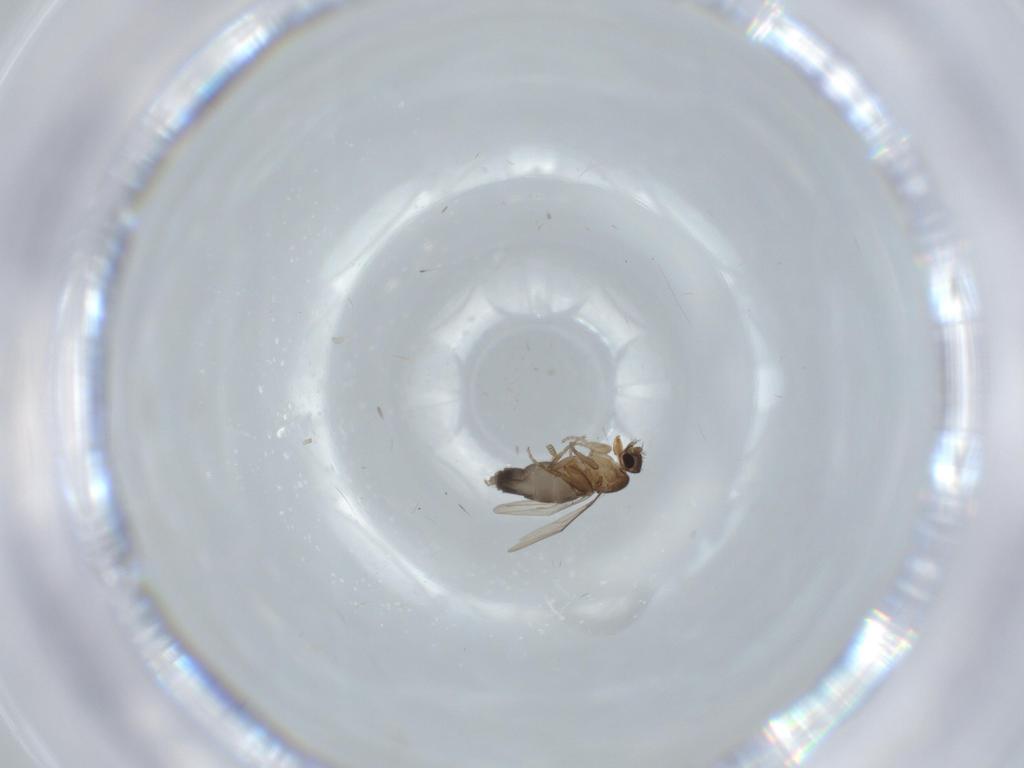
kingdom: Animalia
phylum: Arthropoda
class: Insecta
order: Diptera
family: Phoridae
